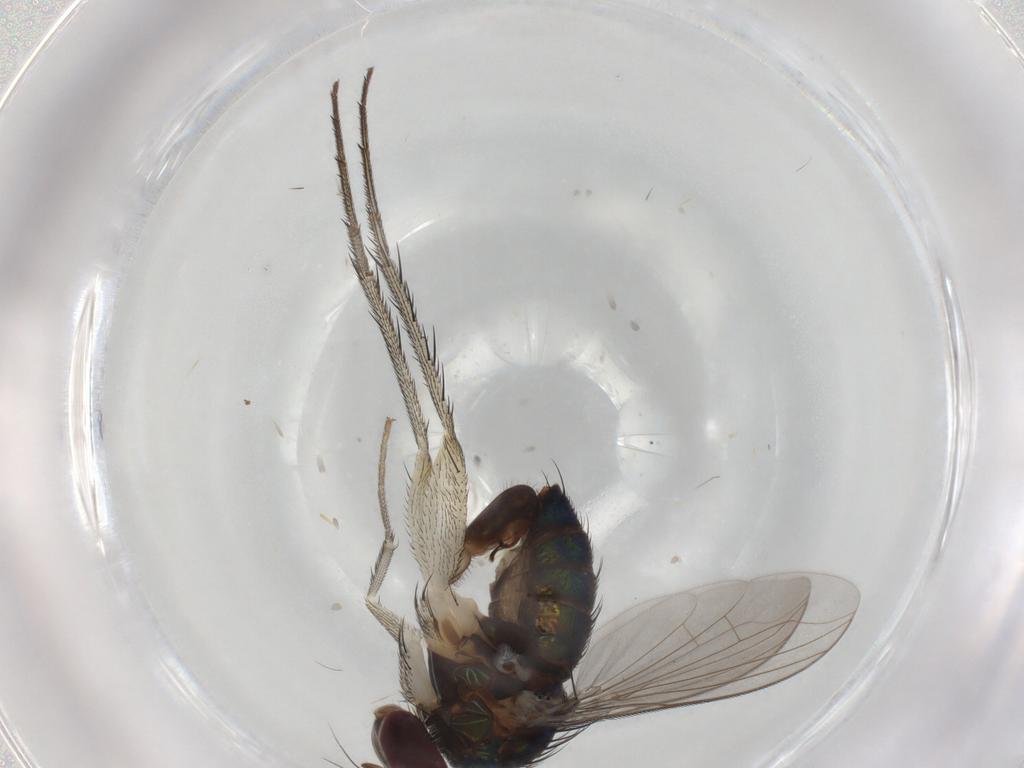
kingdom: Animalia
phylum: Arthropoda
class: Insecta
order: Diptera
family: Dolichopodidae
